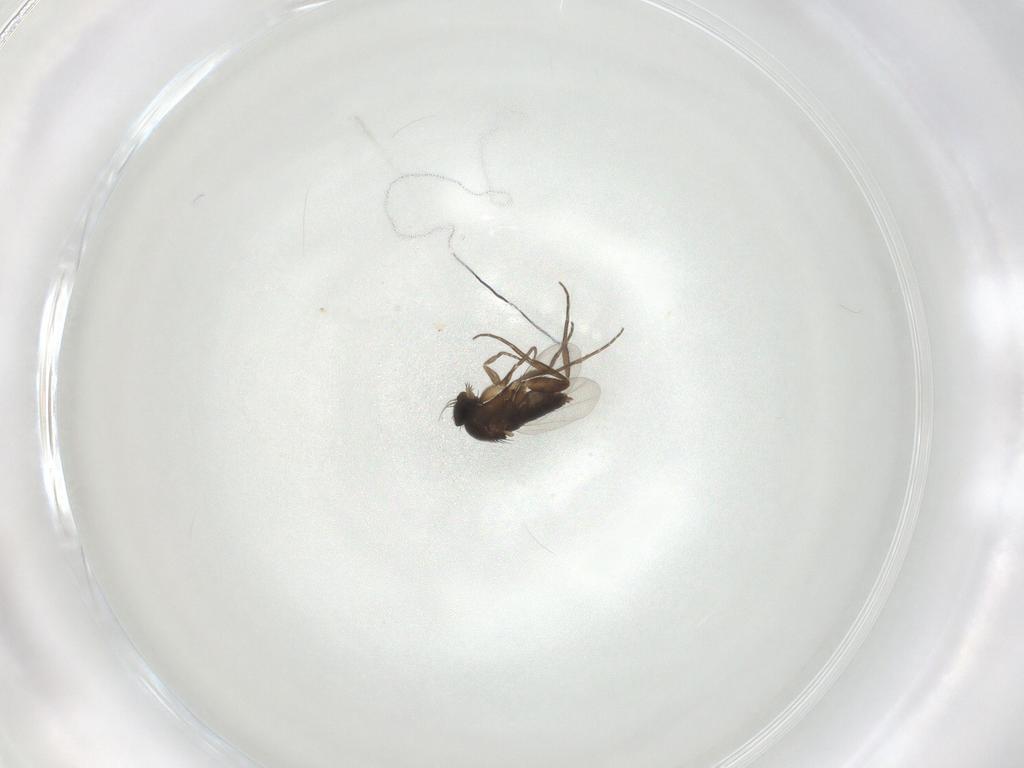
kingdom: Animalia
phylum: Arthropoda
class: Insecta
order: Diptera
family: Phoridae
